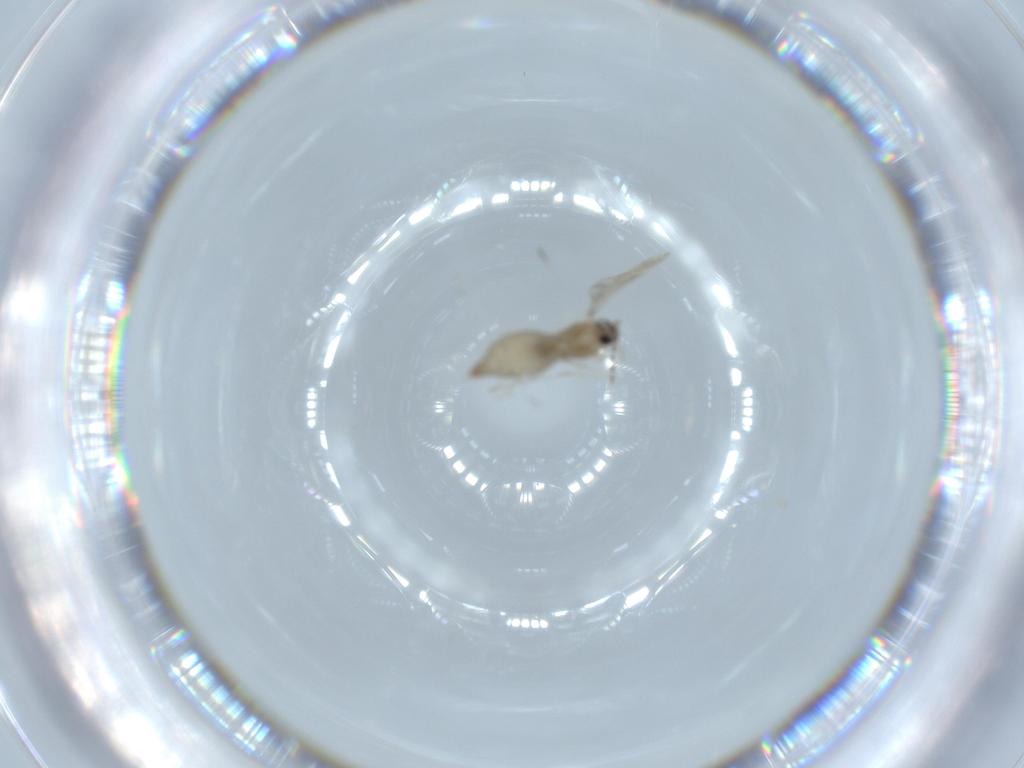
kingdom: Animalia
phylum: Arthropoda
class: Insecta
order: Diptera
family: Cecidomyiidae
